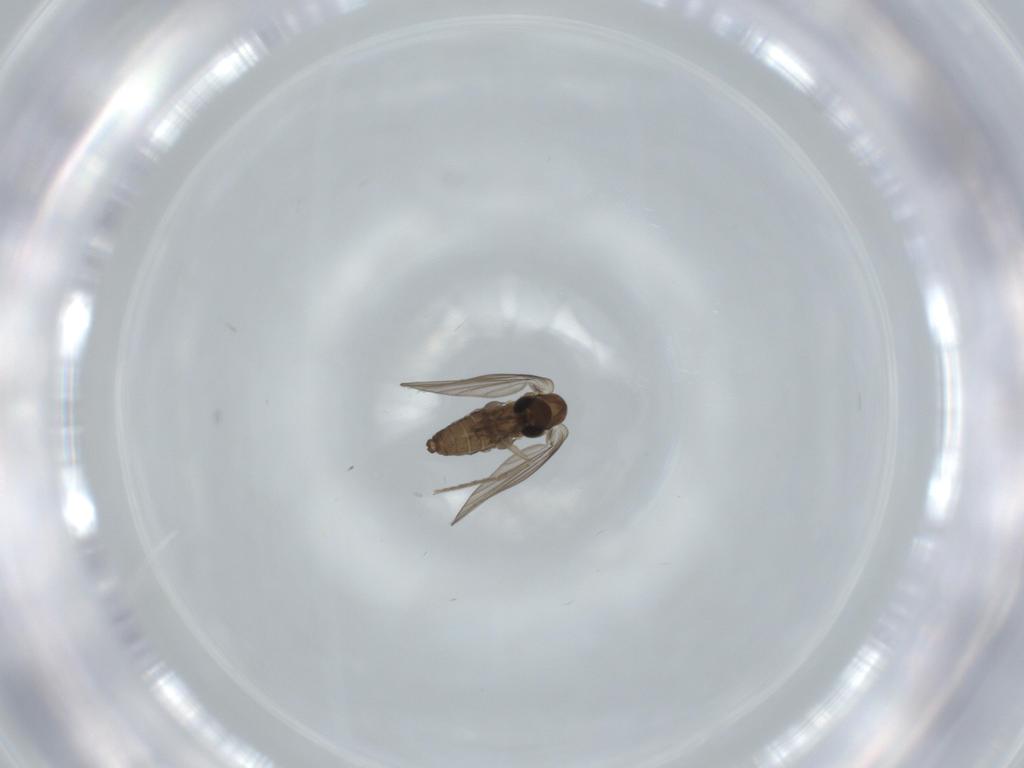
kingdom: Animalia
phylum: Arthropoda
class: Insecta
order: Diptera
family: Calliphoridae
